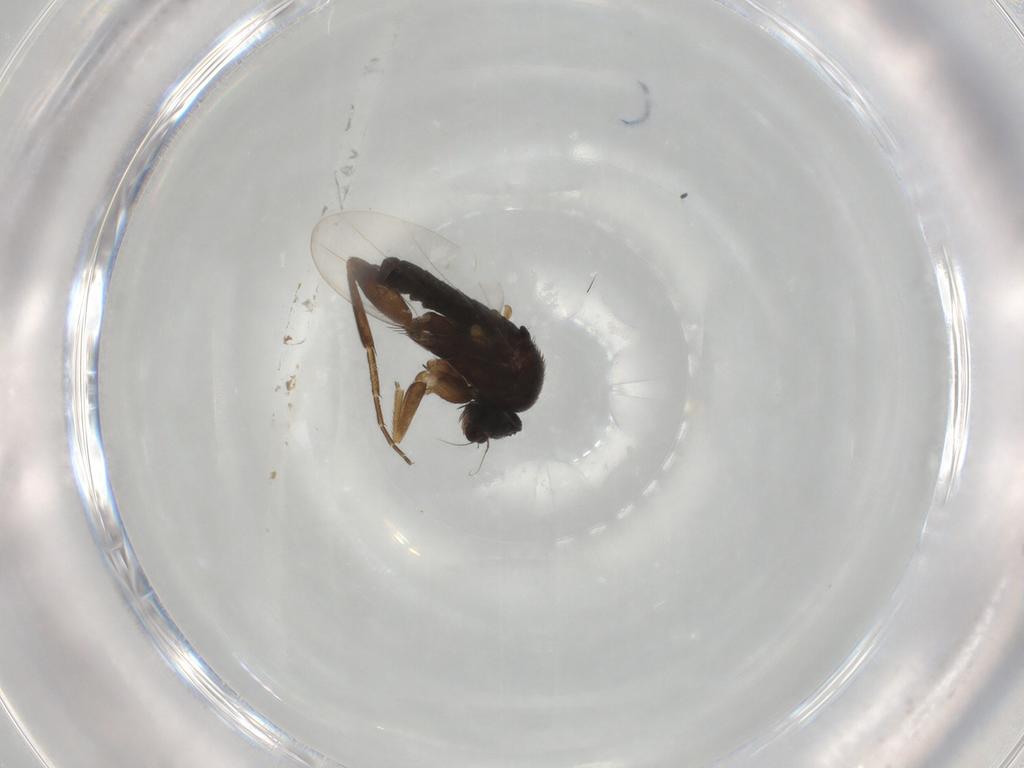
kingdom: Animalia
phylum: Arthropoda
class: Insecta
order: Diptera
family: Phoridae
